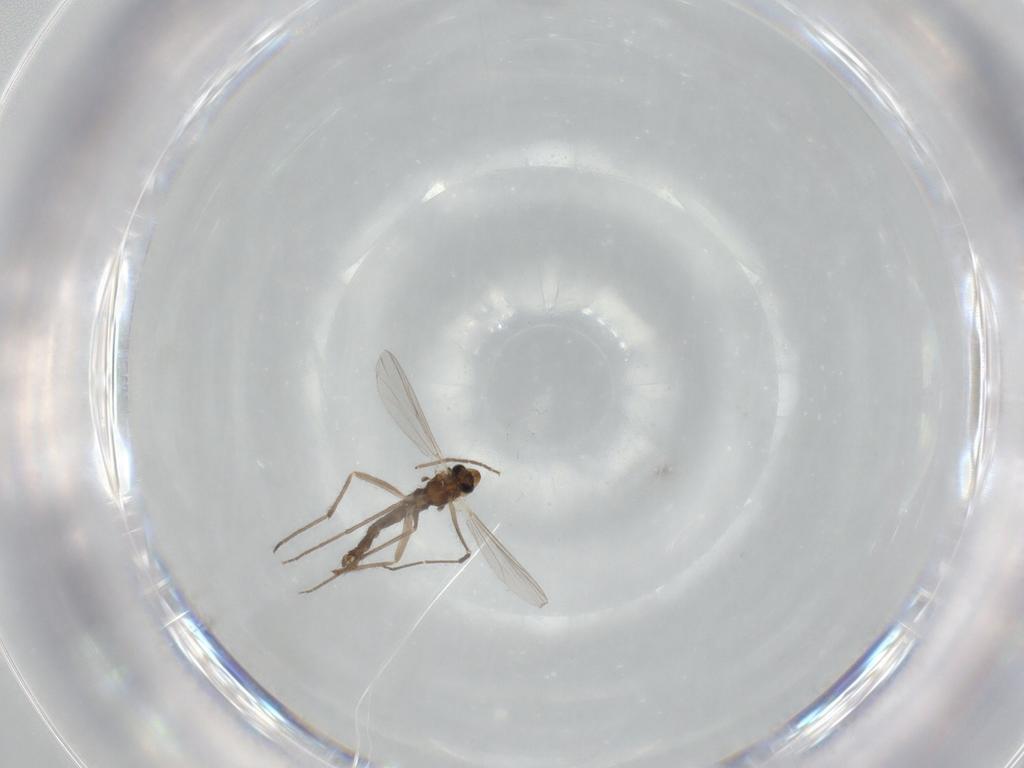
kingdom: Animalia
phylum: Arthropoda
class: Insecta
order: Diptera
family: Chironomidae
